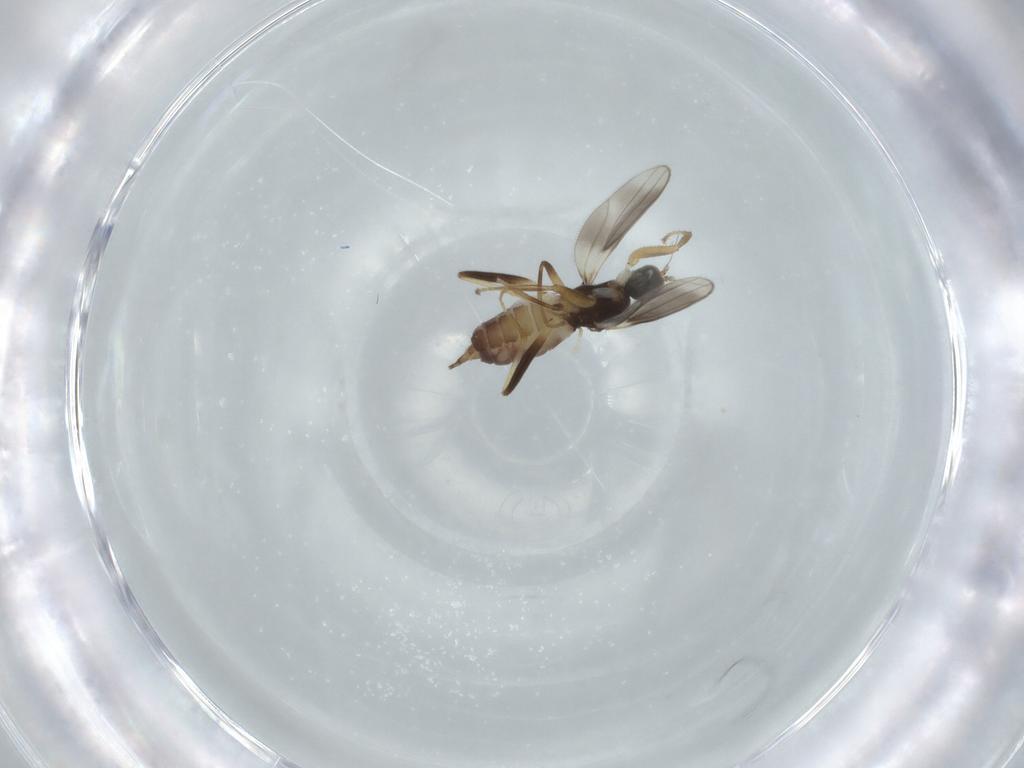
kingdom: Animalia
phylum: Arthropoda
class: Insecta
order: Diptera
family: Hybotidae
